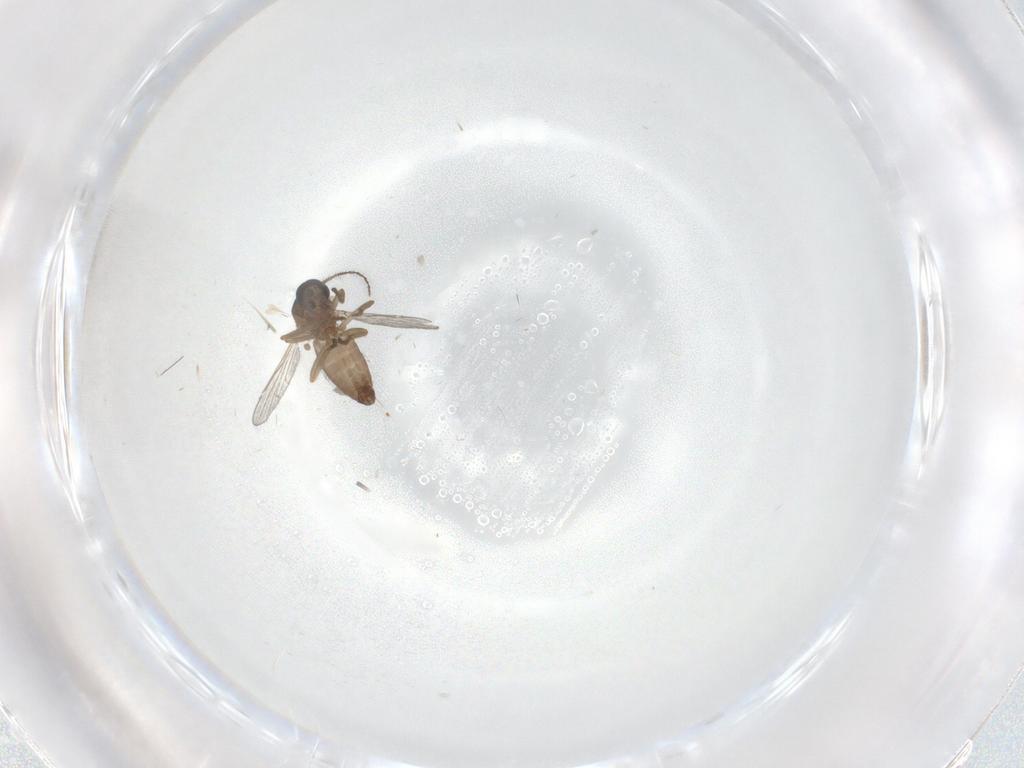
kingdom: Animalia
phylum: Arthropoda
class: Insecta
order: Diptera
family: Ceratopogonidae
